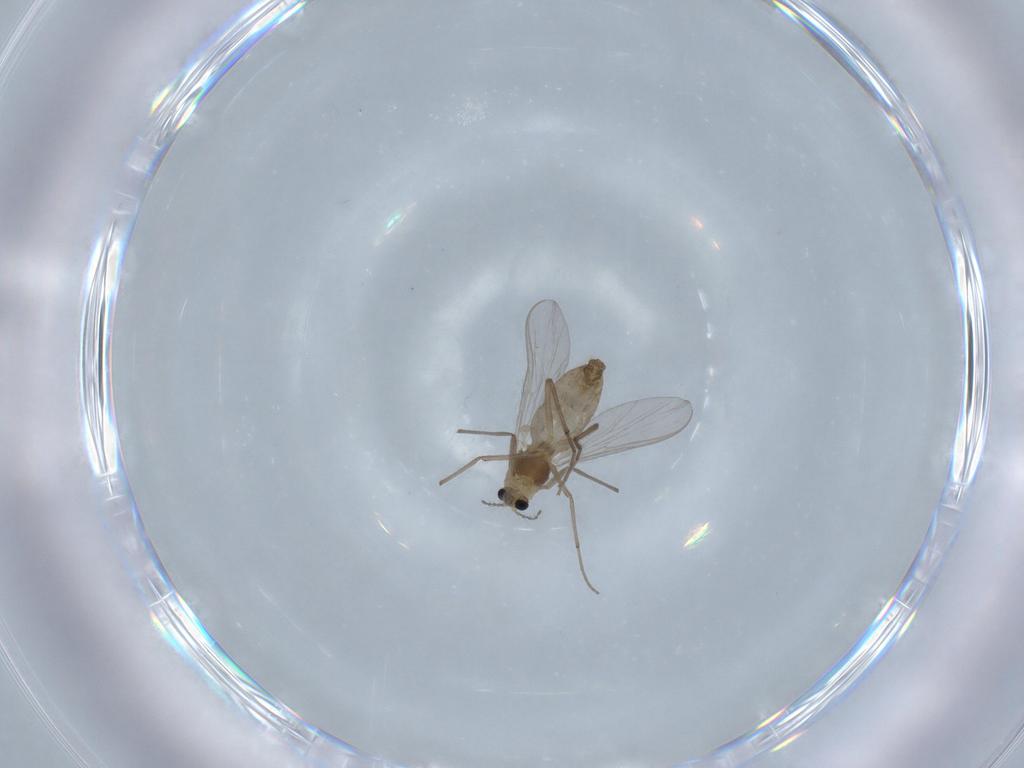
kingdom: Animalia
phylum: Arthropoda
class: Insecta
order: Diptera
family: Chironomidae
